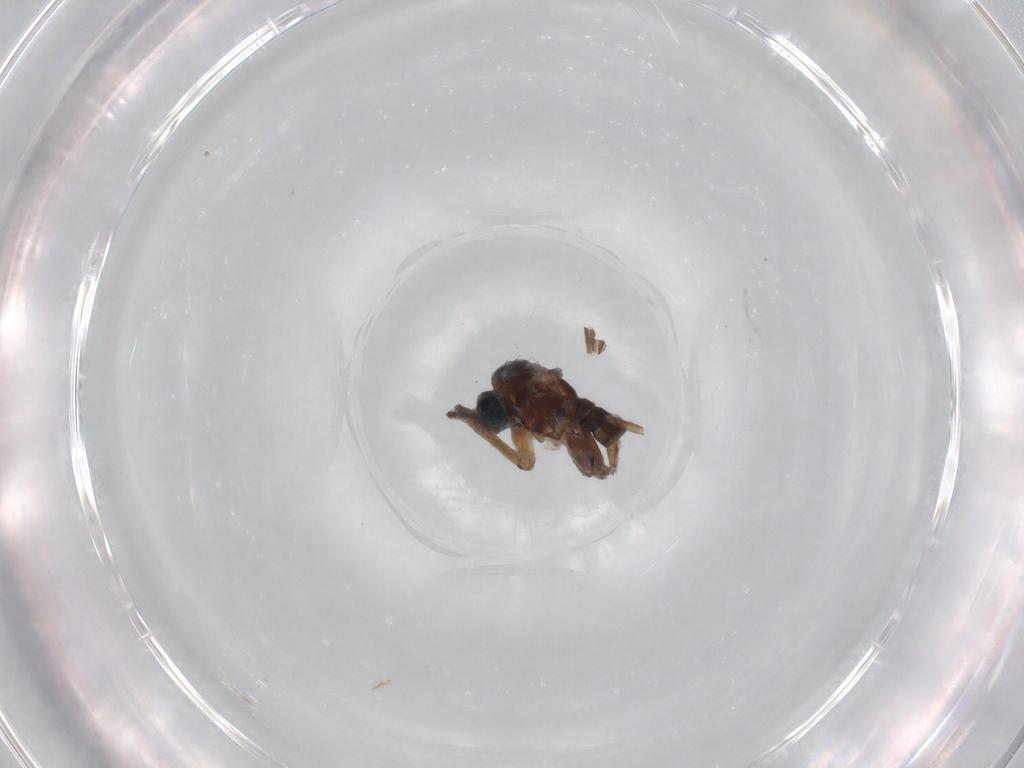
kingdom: Animalia
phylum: Arthropoda
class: Insecta
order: Diptera
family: Sciaridae
